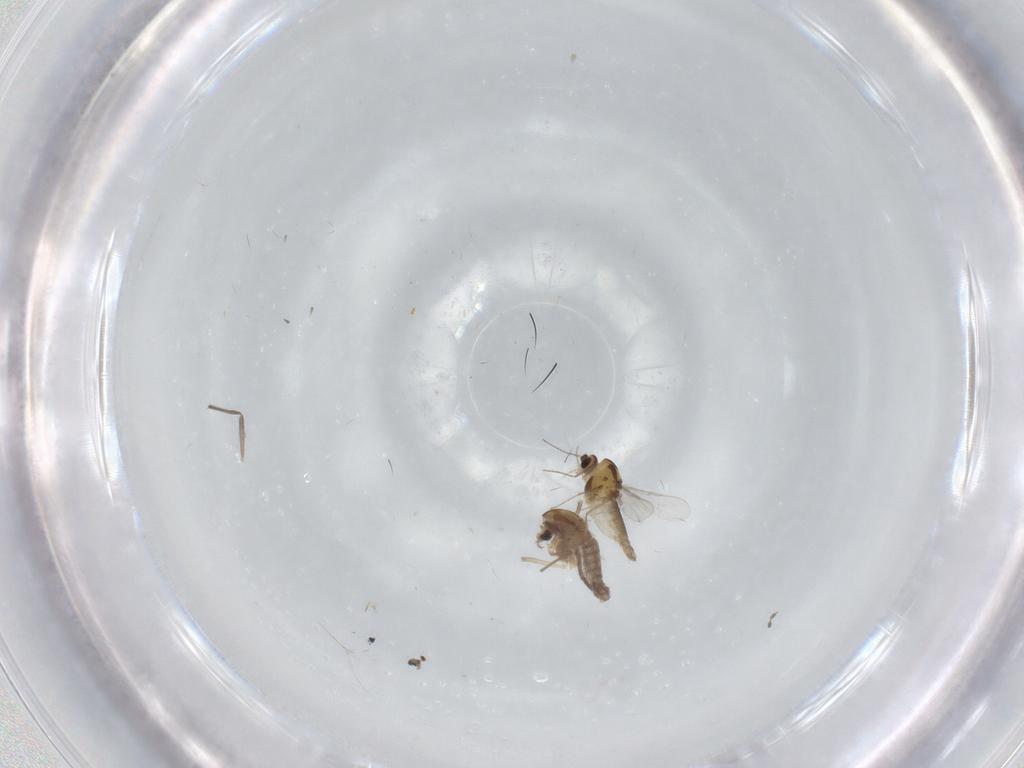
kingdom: Animalia
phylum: Arthropoda
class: Insecta
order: Diptera
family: Chironomidae
